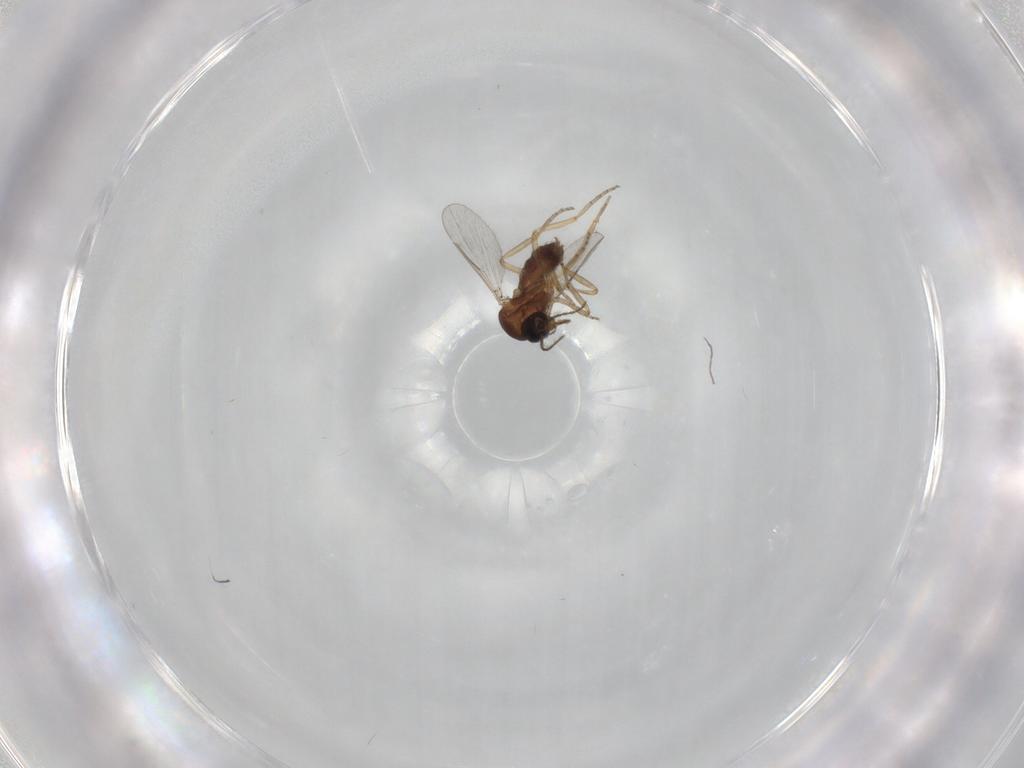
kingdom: Animalia
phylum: Arthropoda
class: Insecta
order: Diptera
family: Ceratopogonidae
